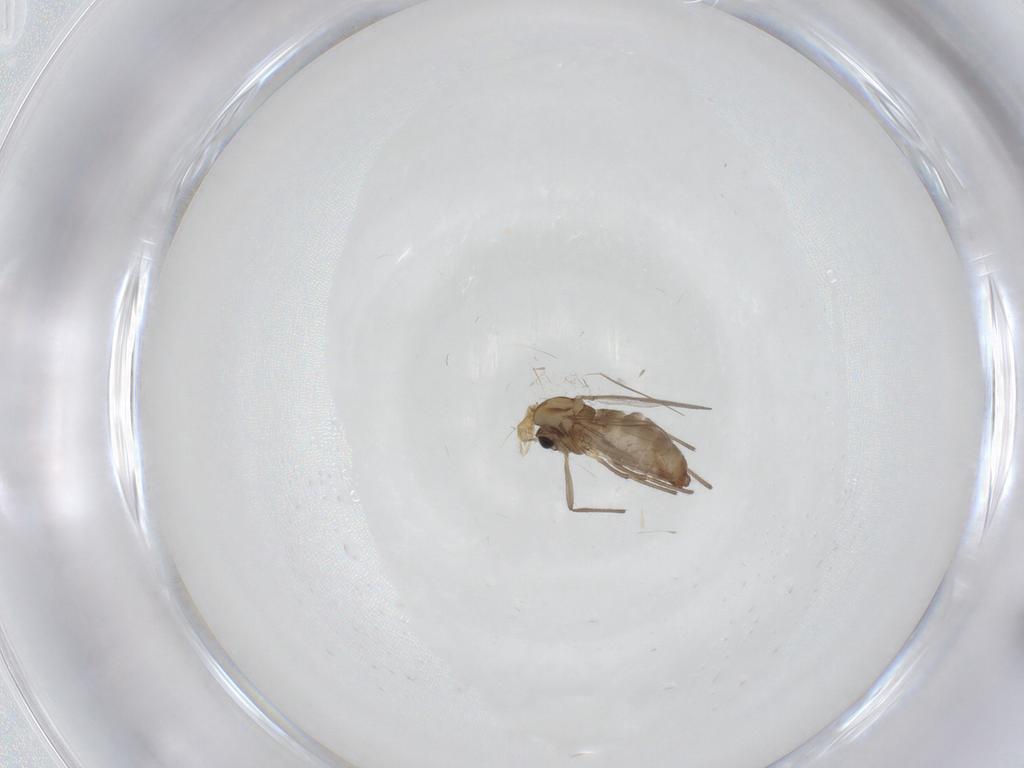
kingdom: Animalia
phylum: Arthropoda
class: Insecta
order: Diptera
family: Chironomidae
